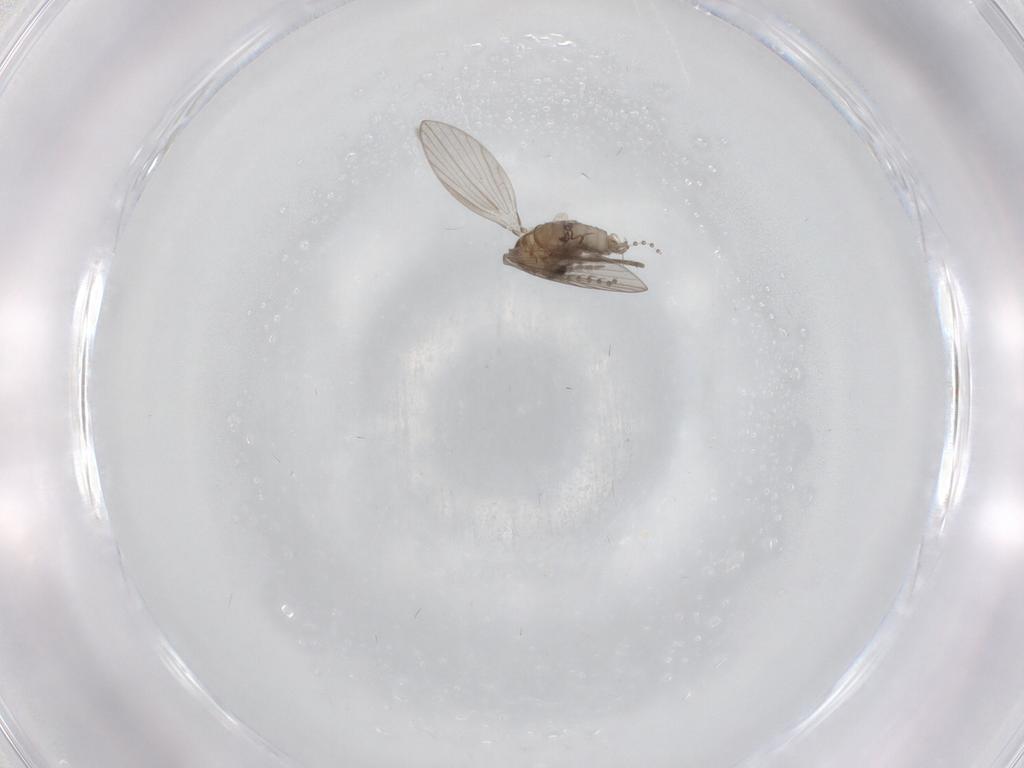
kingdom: Animalia
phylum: Arthropoda
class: Insecta
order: Diptera
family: Psychodidae
